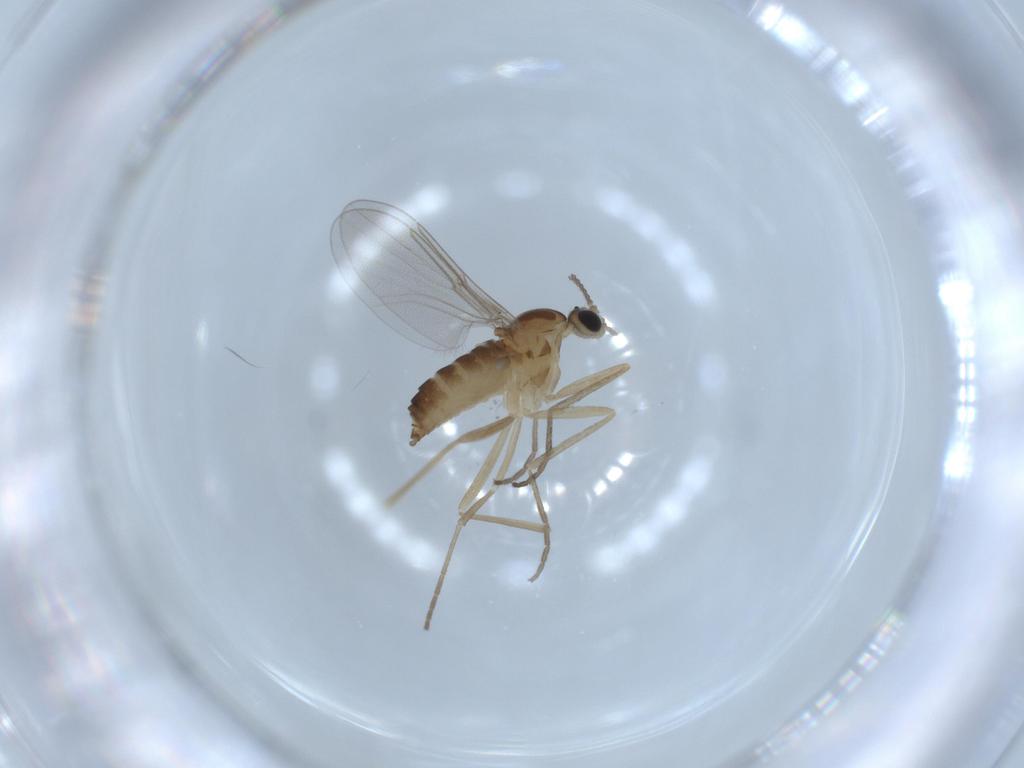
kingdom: Animalia
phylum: Arthropoda
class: Insecta
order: Diptera
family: Cecidomyiidae
